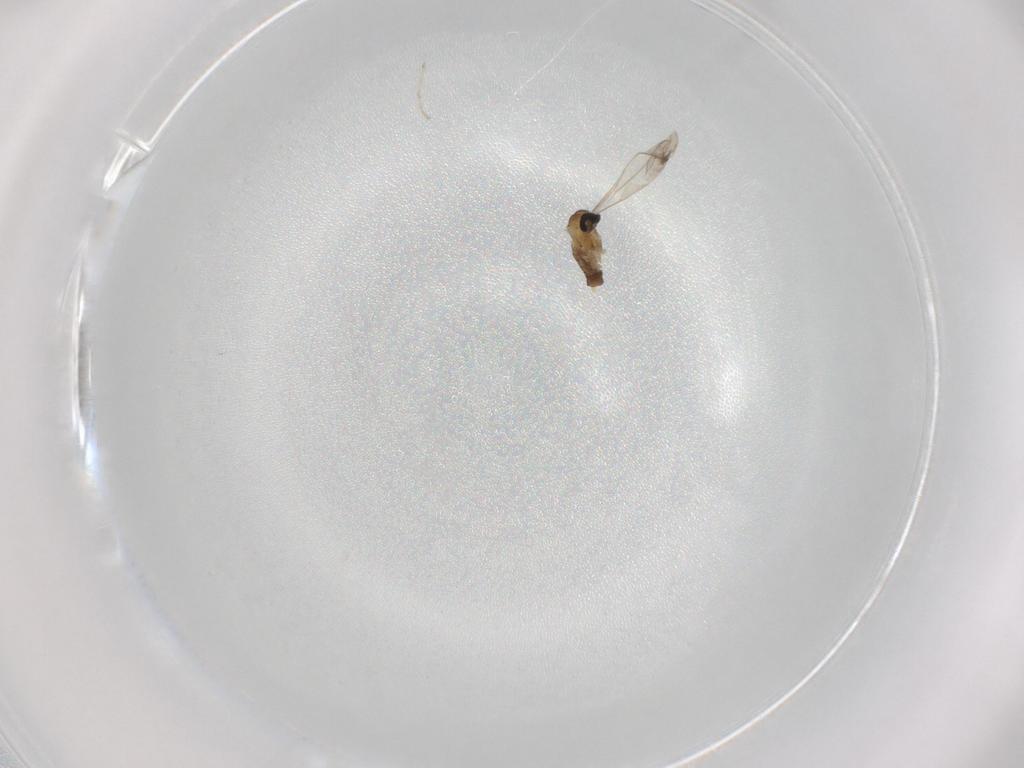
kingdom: Animalia
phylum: Arthropoda
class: Insecta
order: Diptera
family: Cecidomyiidae
